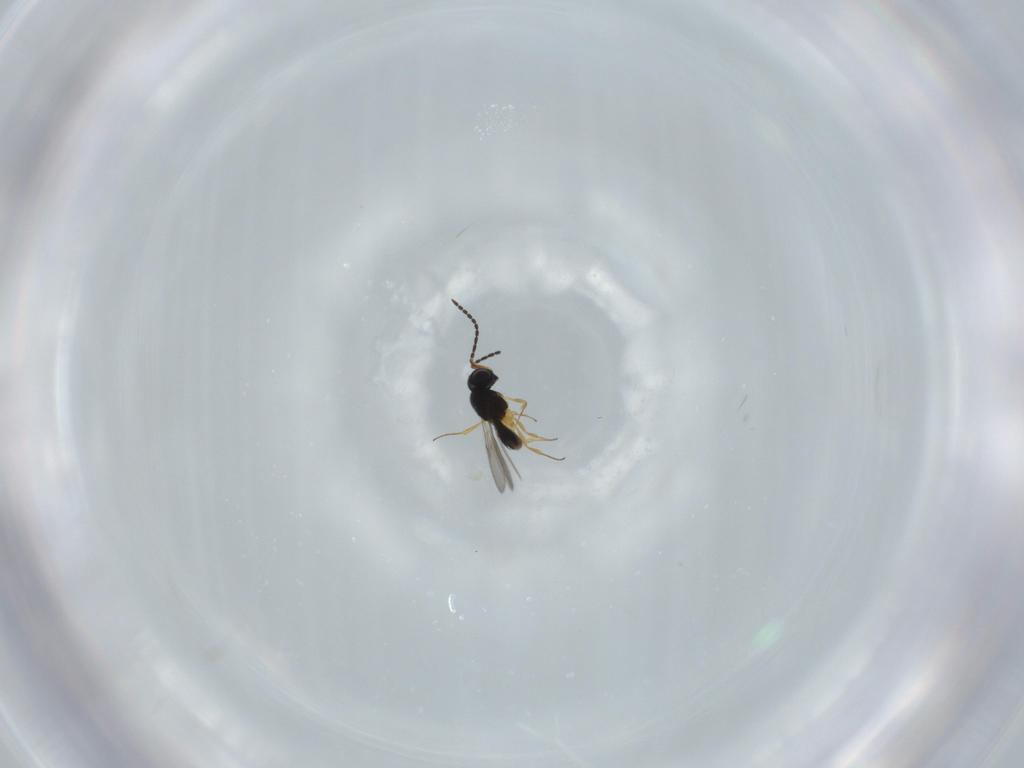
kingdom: Animalia
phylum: Arthropoda
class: Insecta
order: Hymenoptera
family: Scelionidae
